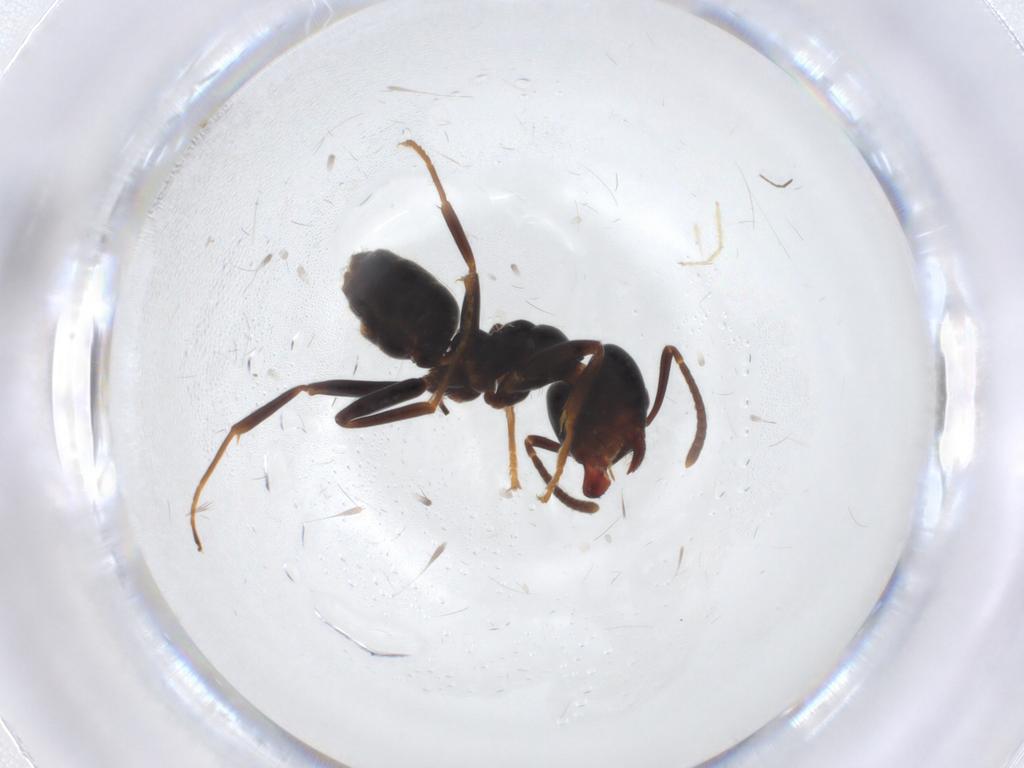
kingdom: Animalia
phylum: Arthropoda
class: Insecta
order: Hymenoptera
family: Formicidae
